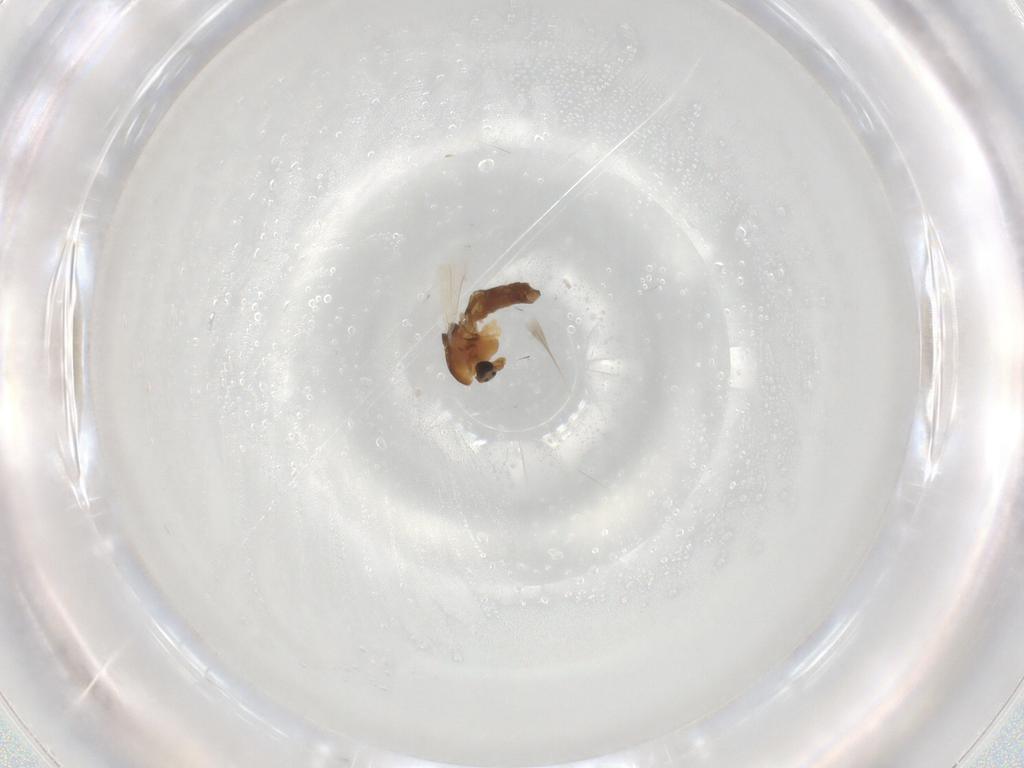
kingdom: Animalia
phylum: Arthropoda
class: Insecta
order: Diptera
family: Chironomidae
